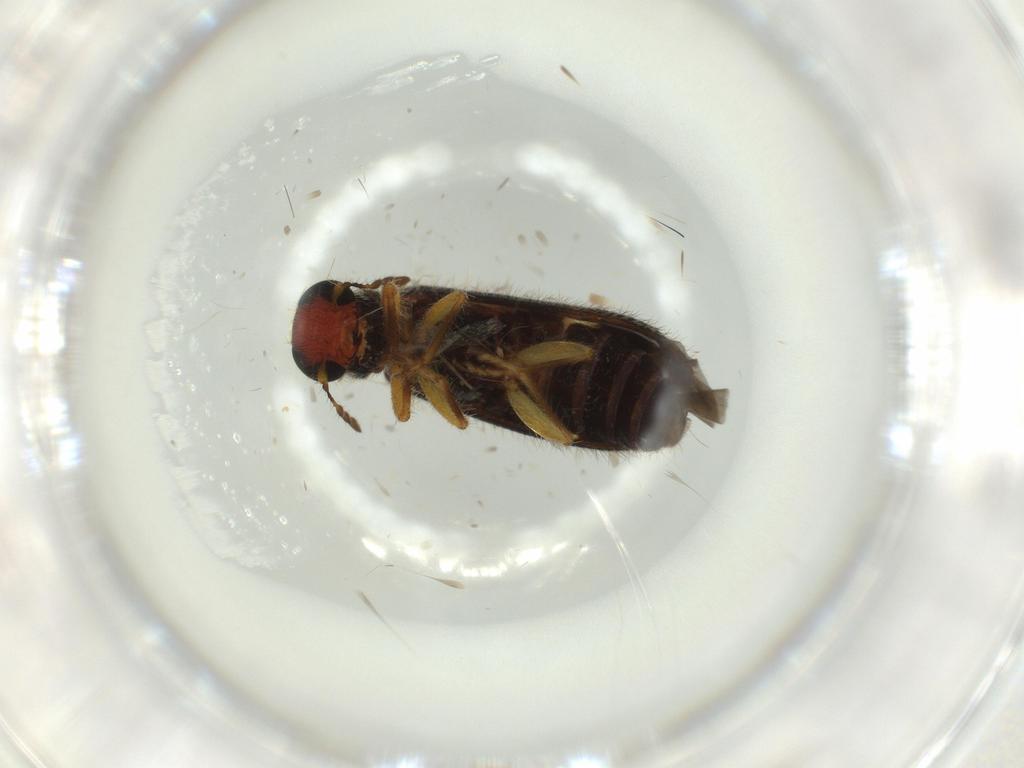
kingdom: Animalia
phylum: Arthropoda
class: Insecta
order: Coleoptera
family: Cleridae
